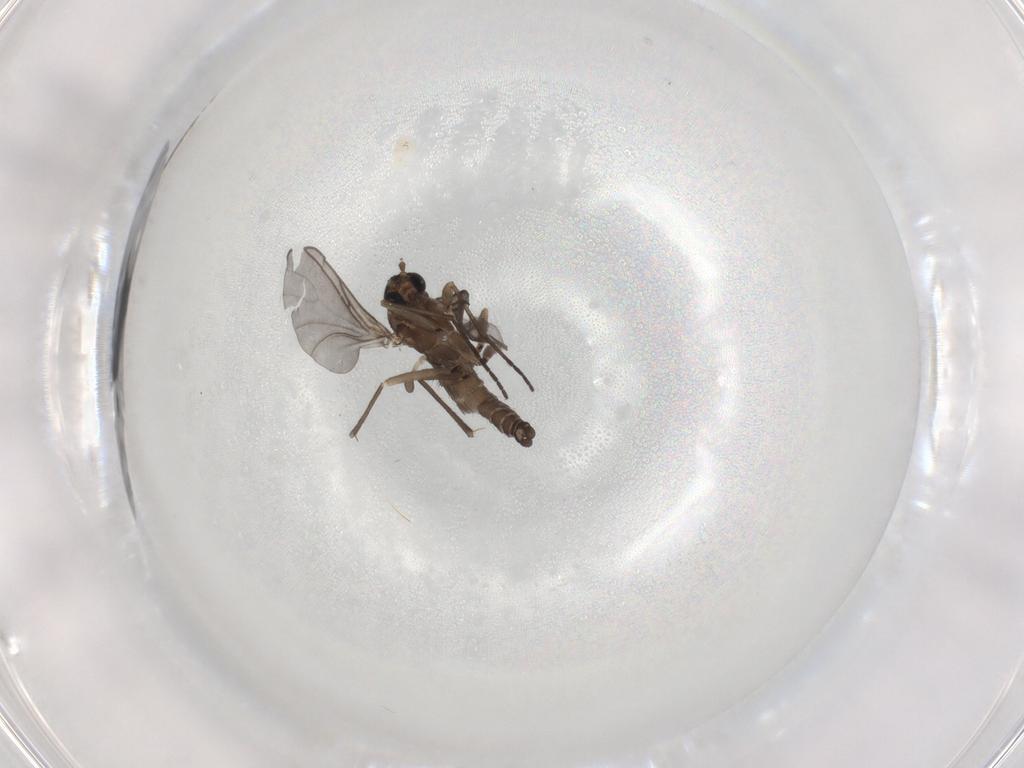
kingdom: Animalia
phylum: Arthropoda
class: Insecta
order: Diptera
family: Sciaridae
